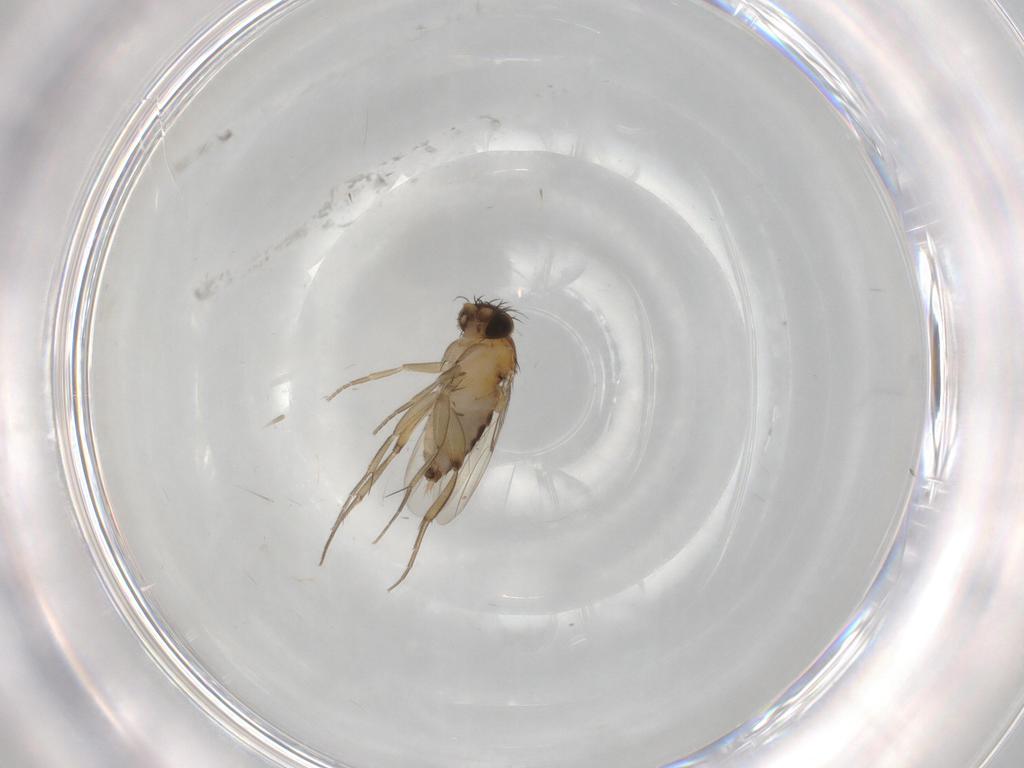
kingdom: Animalia
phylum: Arthropoda
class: Insecta
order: Diptera
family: Phoridae
